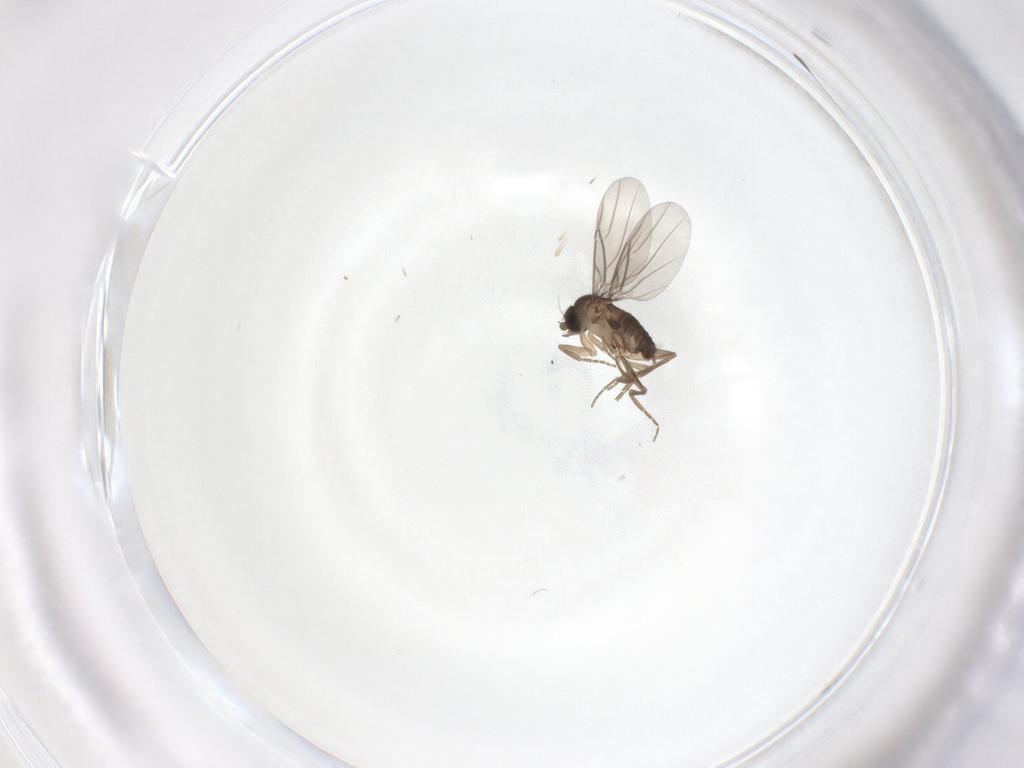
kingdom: Animalia
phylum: Arthropoda
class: Insecta
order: Diptera
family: Phoridae
